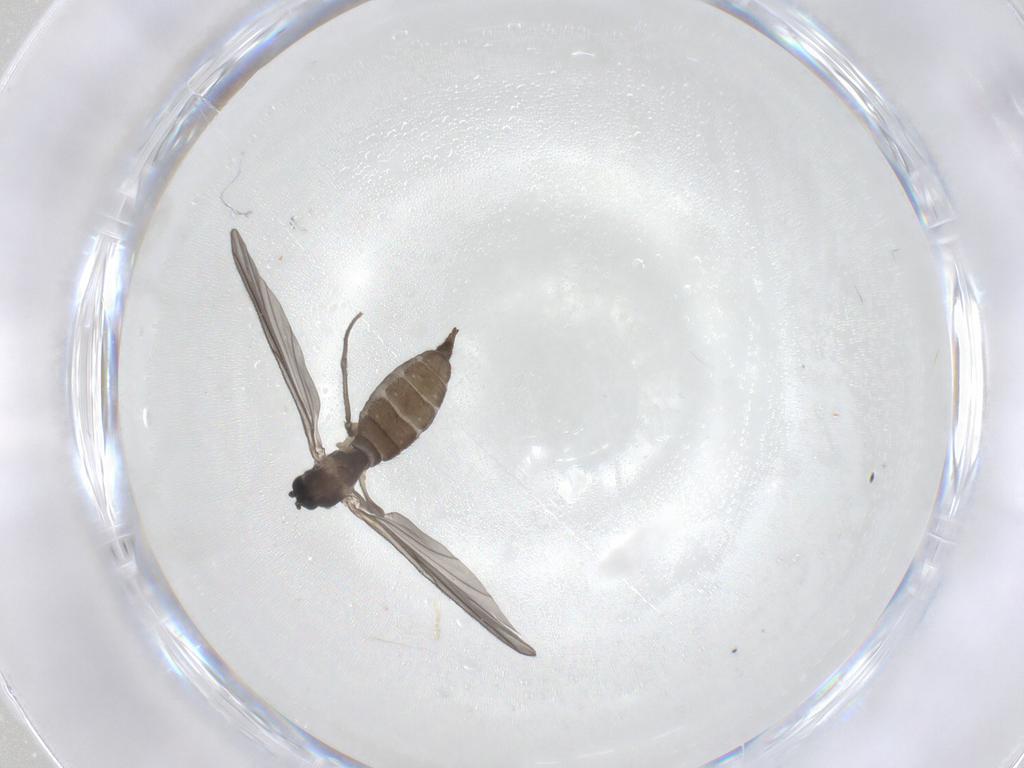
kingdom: Animalia
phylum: Arthropoda
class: Insecta
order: Diptera
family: Sciaridae
